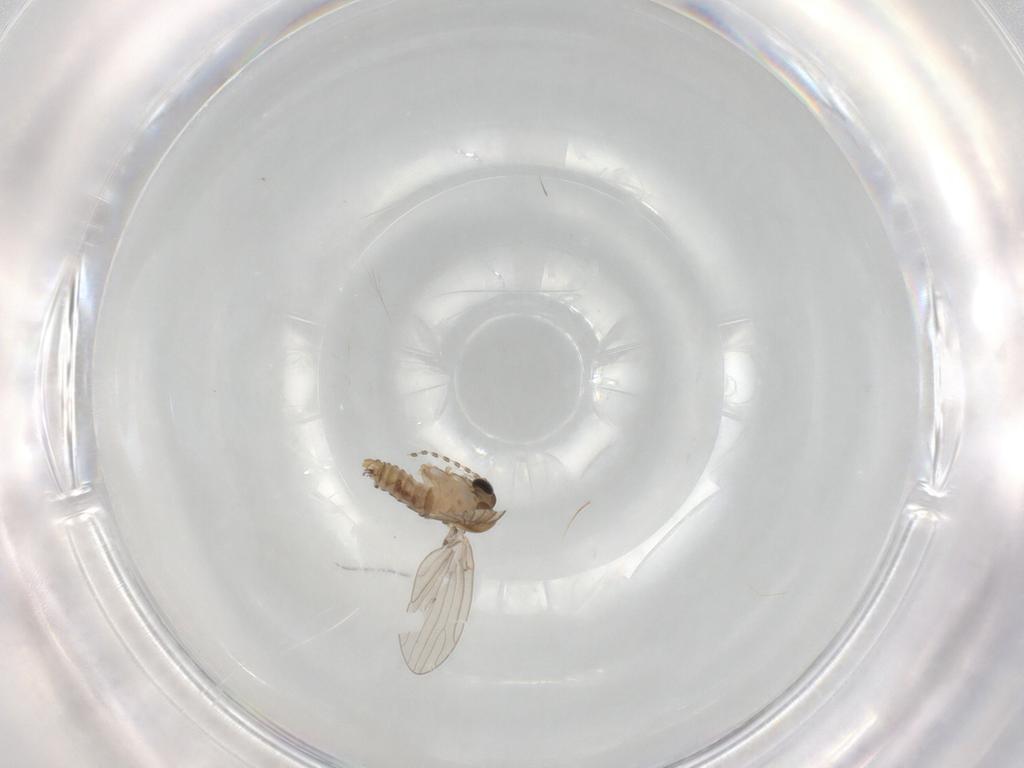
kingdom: Animalia
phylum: Arthropoda
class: Insecta
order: Diptera
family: Psychodidae
